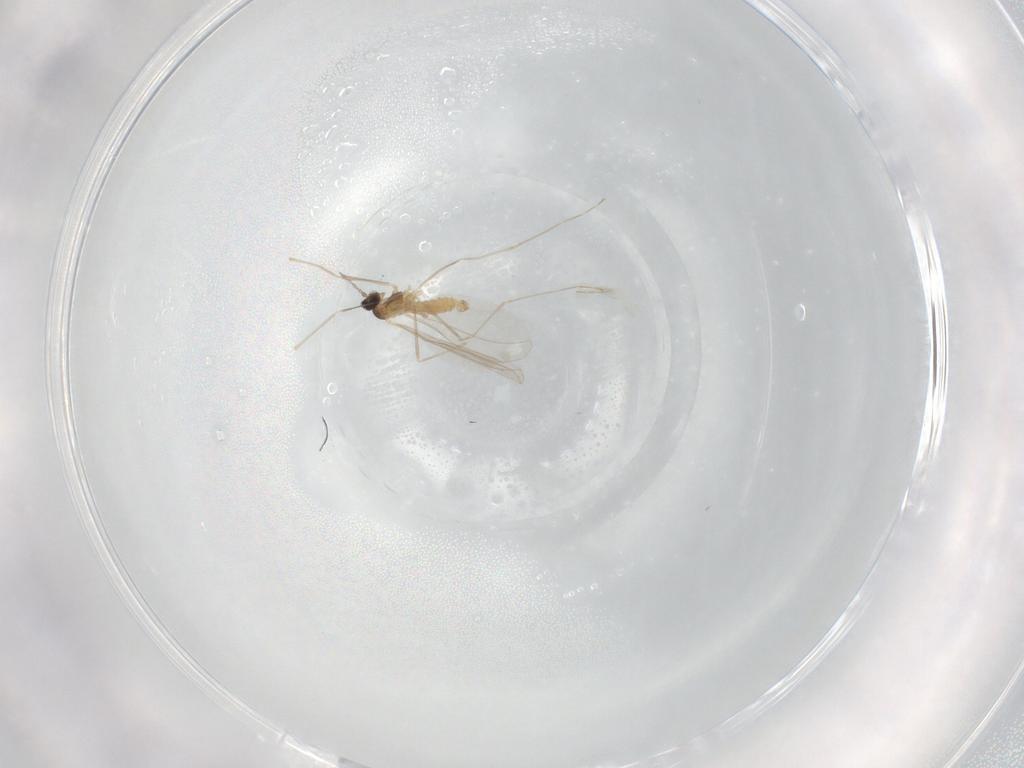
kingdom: Animalia
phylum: Arthropoda
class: Insecta
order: Diptera
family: Cecidomyiidae
